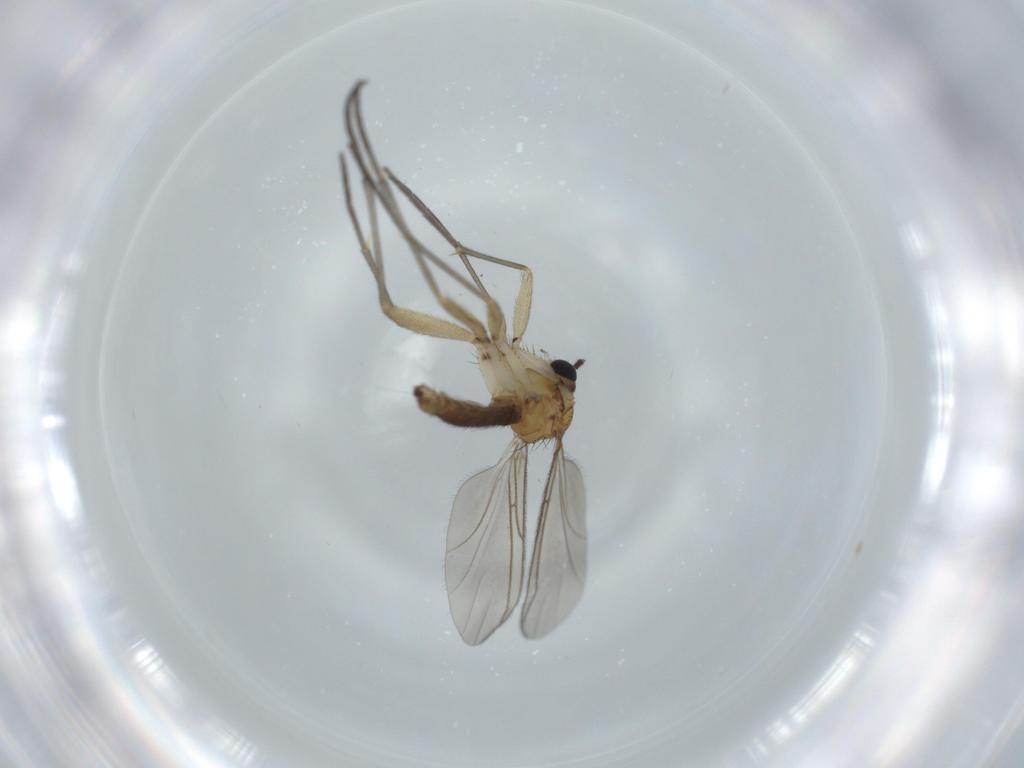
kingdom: Animalia
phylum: Arthropoda
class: Insecta
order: Diptera
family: Sciaridae
